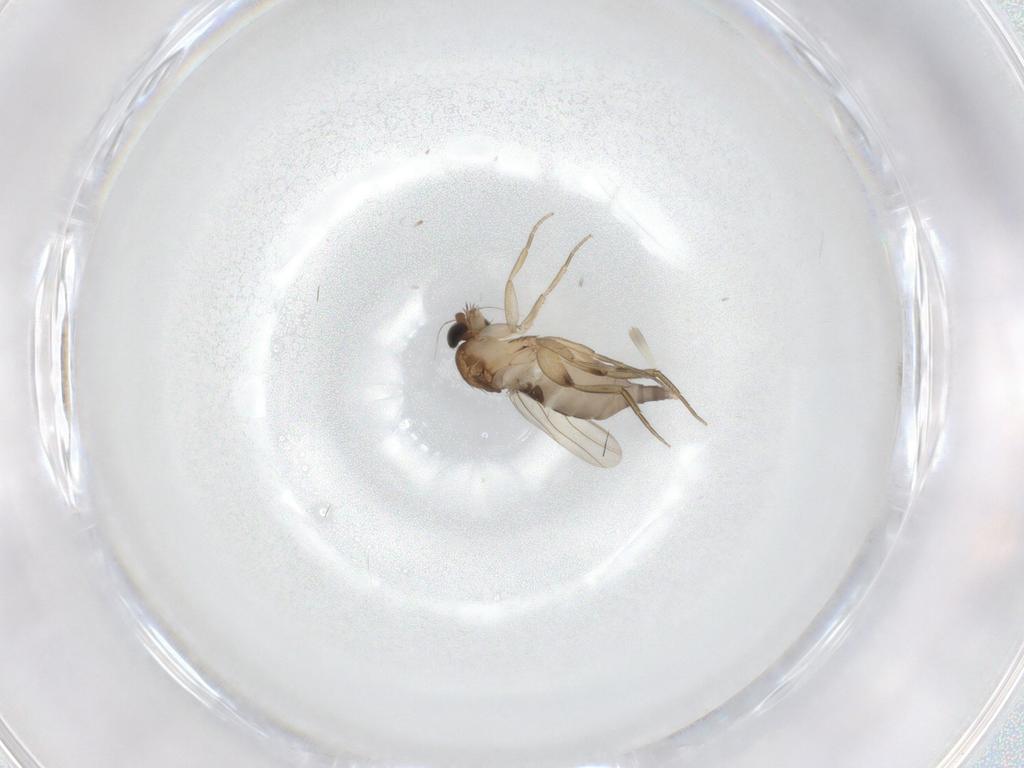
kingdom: Animalia
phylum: Arthropoda
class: Insecta
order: Diptera
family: Phoridae
